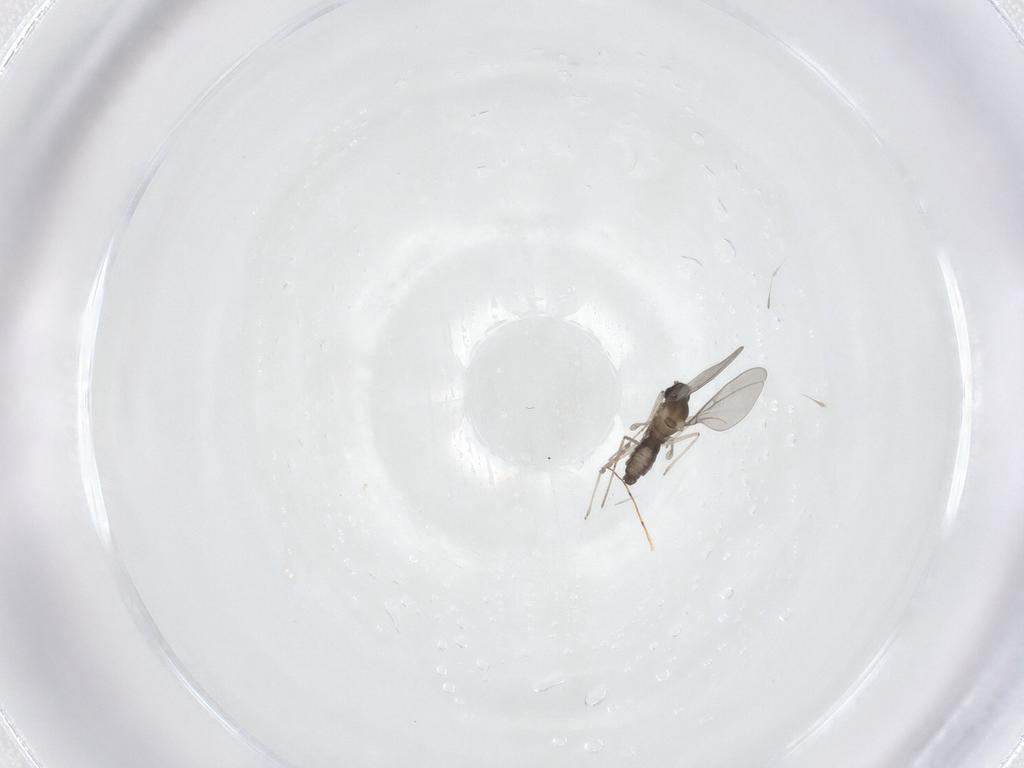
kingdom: Animalia
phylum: Arthropoda
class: Insecta
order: Diptera
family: Cecidomyiidae
